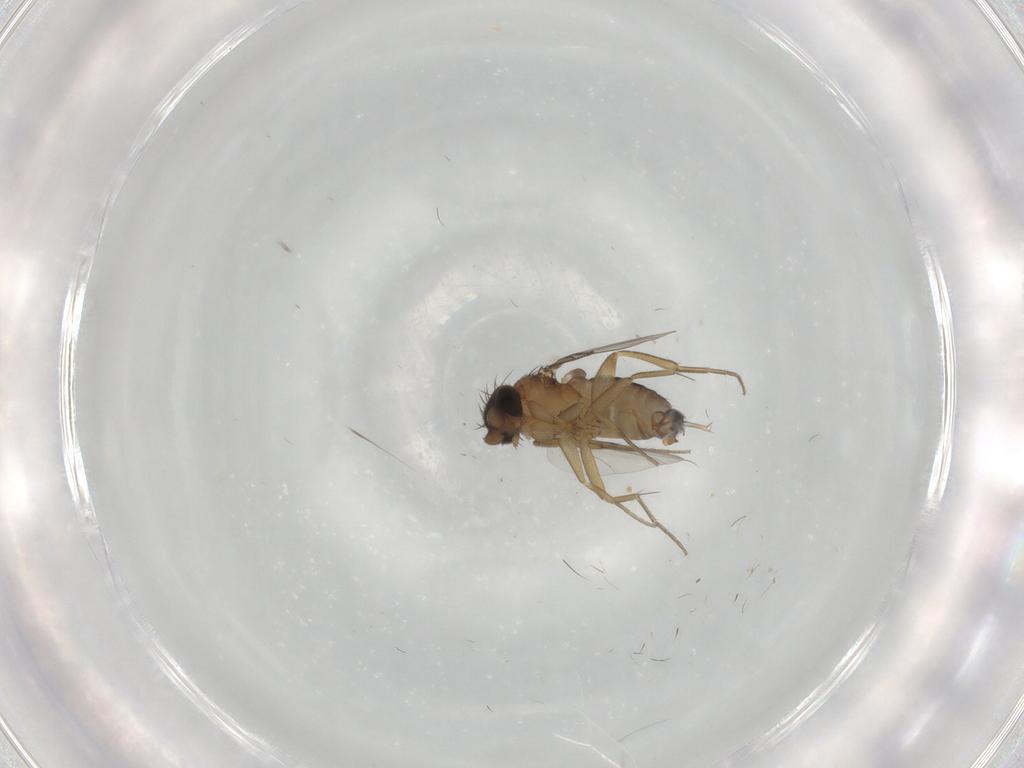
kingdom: Animalia
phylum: Arthropoda
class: Insecta
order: Diptera
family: Phoridae
